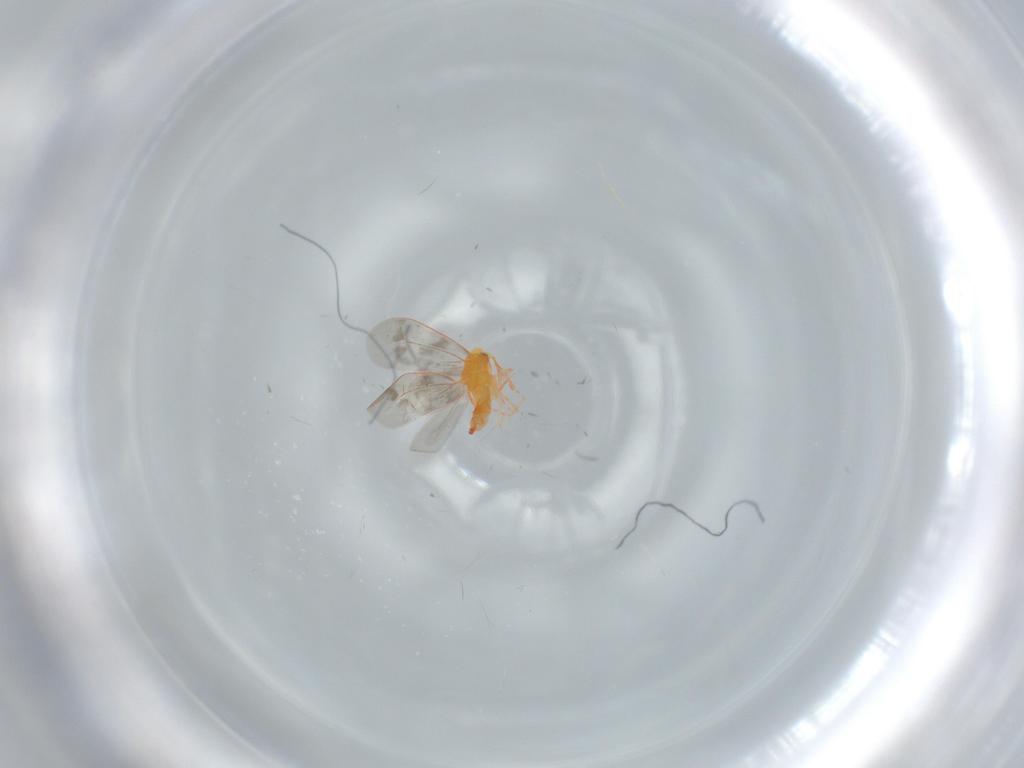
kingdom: Animalia
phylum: Arthropoda
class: Insecta
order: Hemiptera
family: Aleyrodidae
